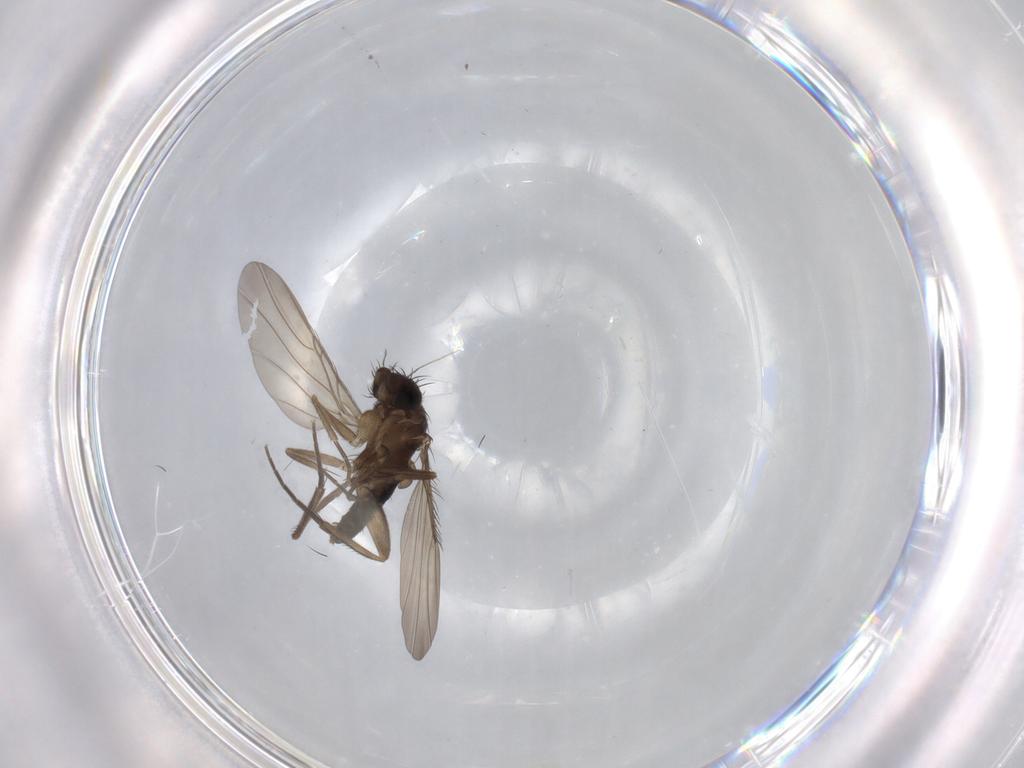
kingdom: Animalia
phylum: Arthropoda
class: Insecta
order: Diptera
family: Phoridae
